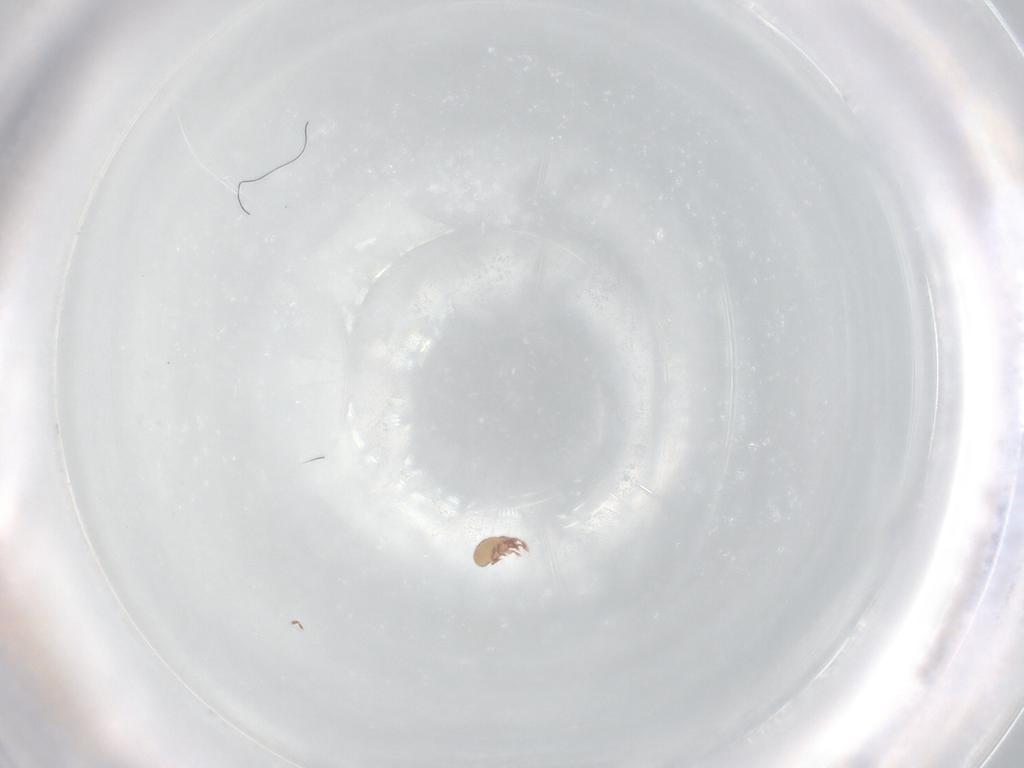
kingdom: Animalia
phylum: Arthropoda
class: Arachnida
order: Sarcoptiformes
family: Eremaeidae
